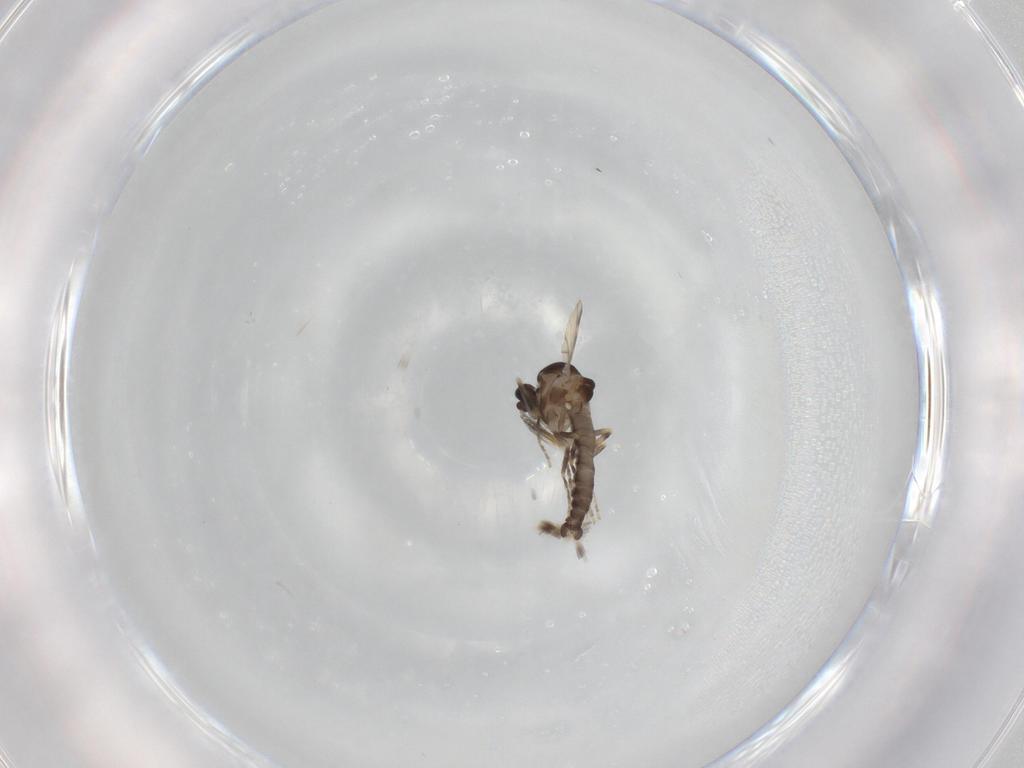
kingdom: Animalia
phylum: Arthropoda
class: Insecta
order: Diptera
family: Ceratopogonidae
